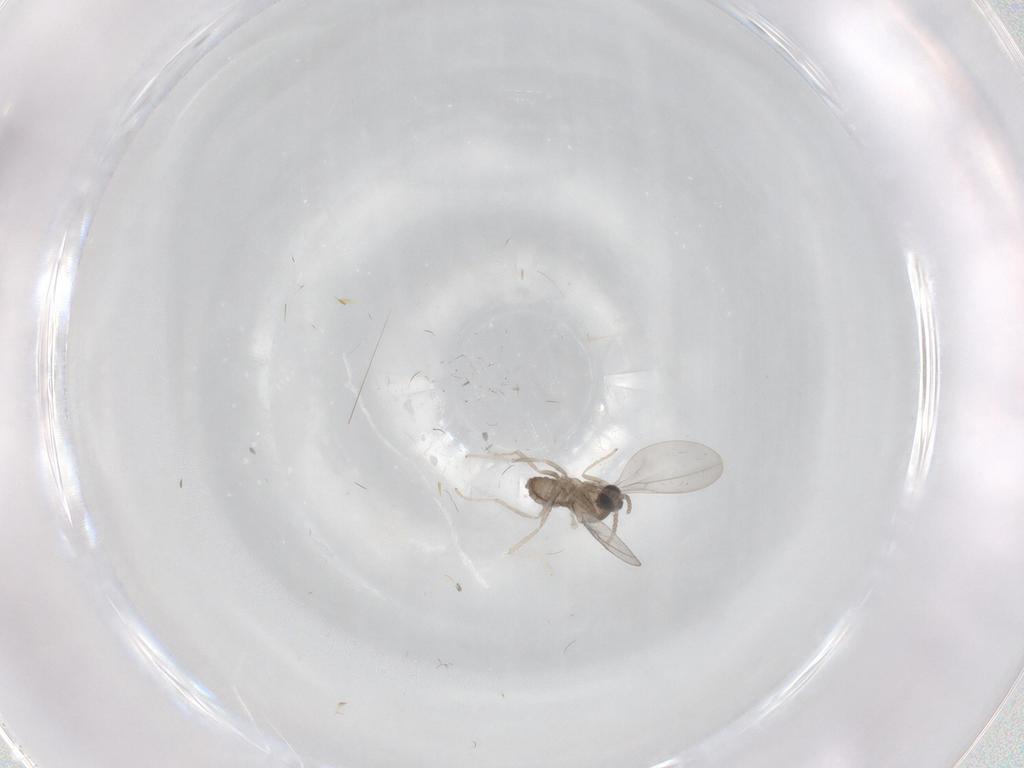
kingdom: Animalia
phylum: Arthropoda
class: Insecta
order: Diptera
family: Cecidomyiidae
